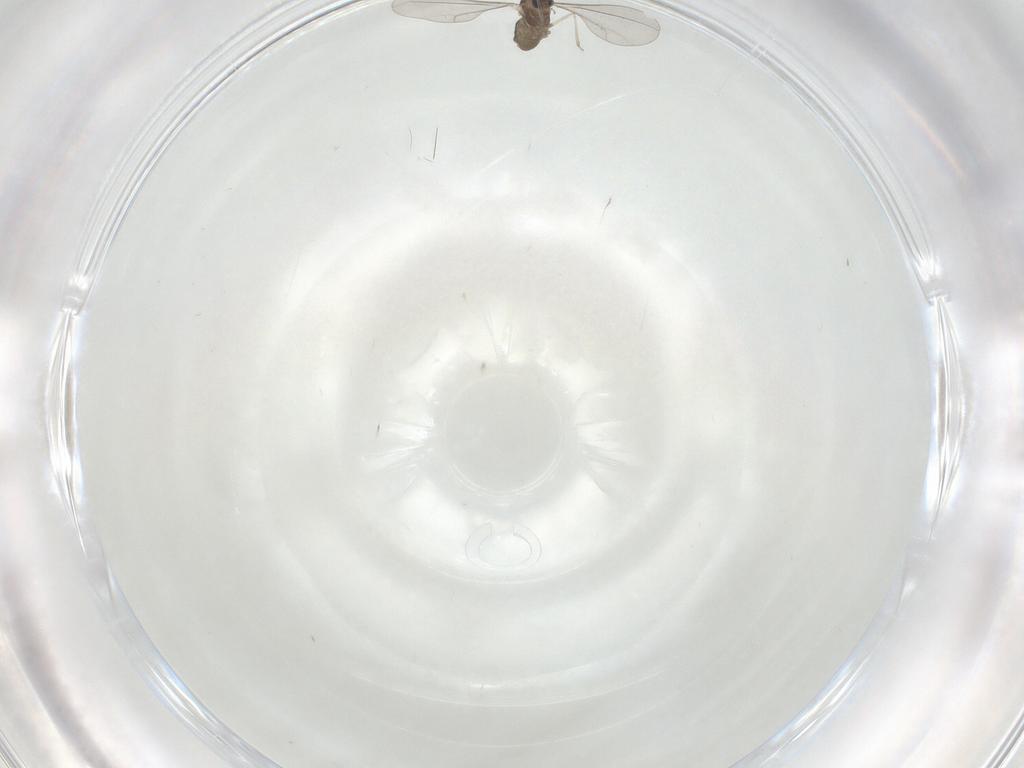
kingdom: Animalia
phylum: Arthropoda
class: Insecta
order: Diptera
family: Cecidomyiidae
